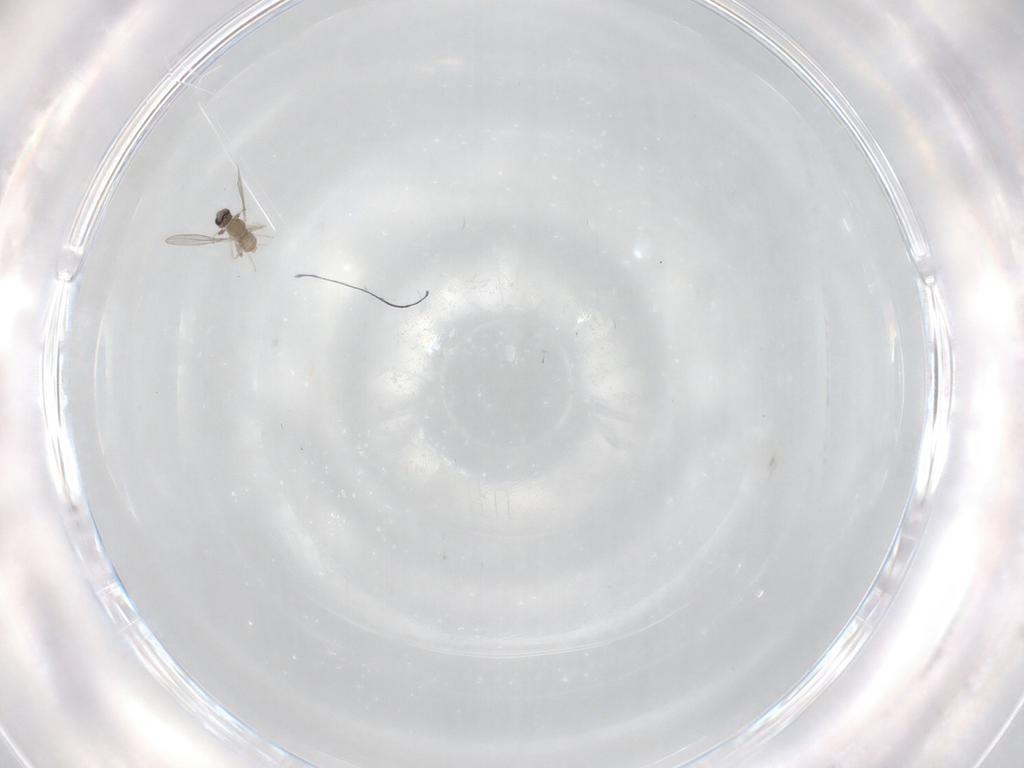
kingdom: Animalia
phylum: Arthropoda
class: Insecta
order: Diptera
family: Cecidomyiidae
